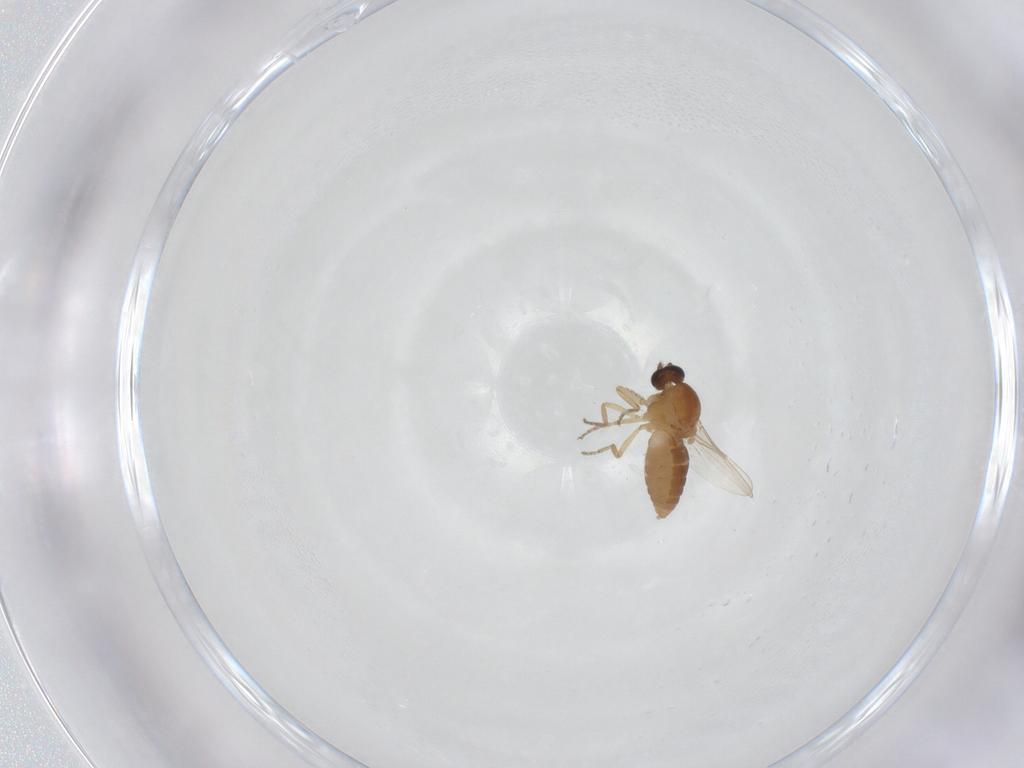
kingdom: Animalia
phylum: Arthropoda
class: Insecta
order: Diptera
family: Ceratopogonidae
